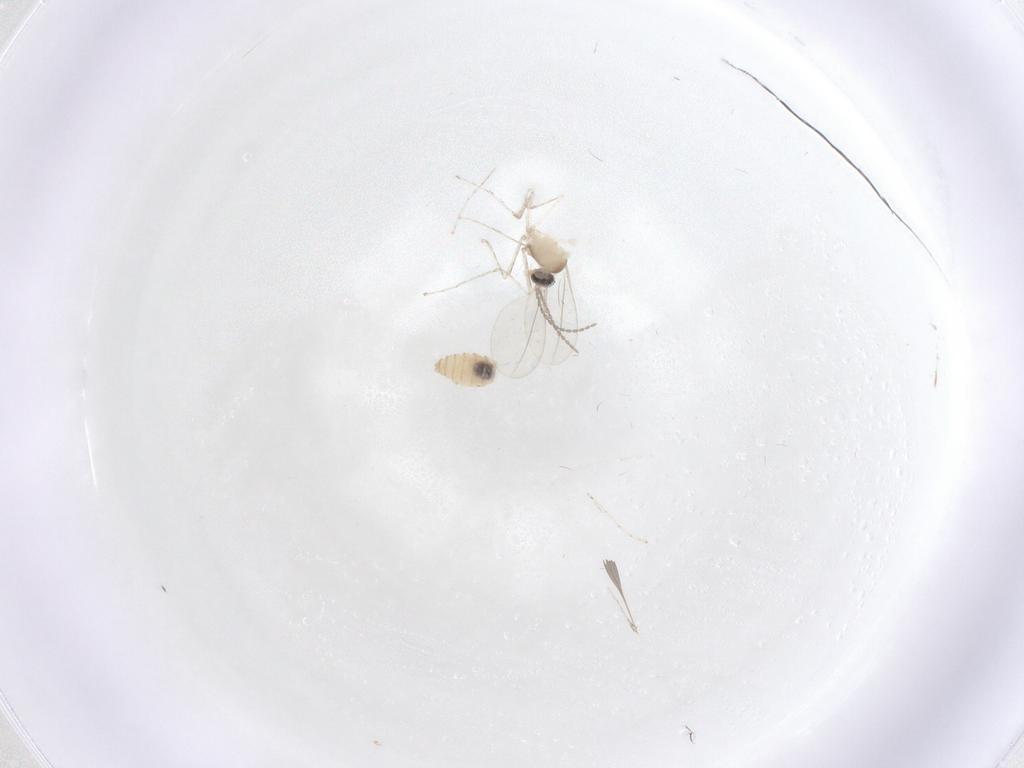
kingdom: Animalia
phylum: Arthropoda
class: Insecta
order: Diptera
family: Cecidomyiidae
